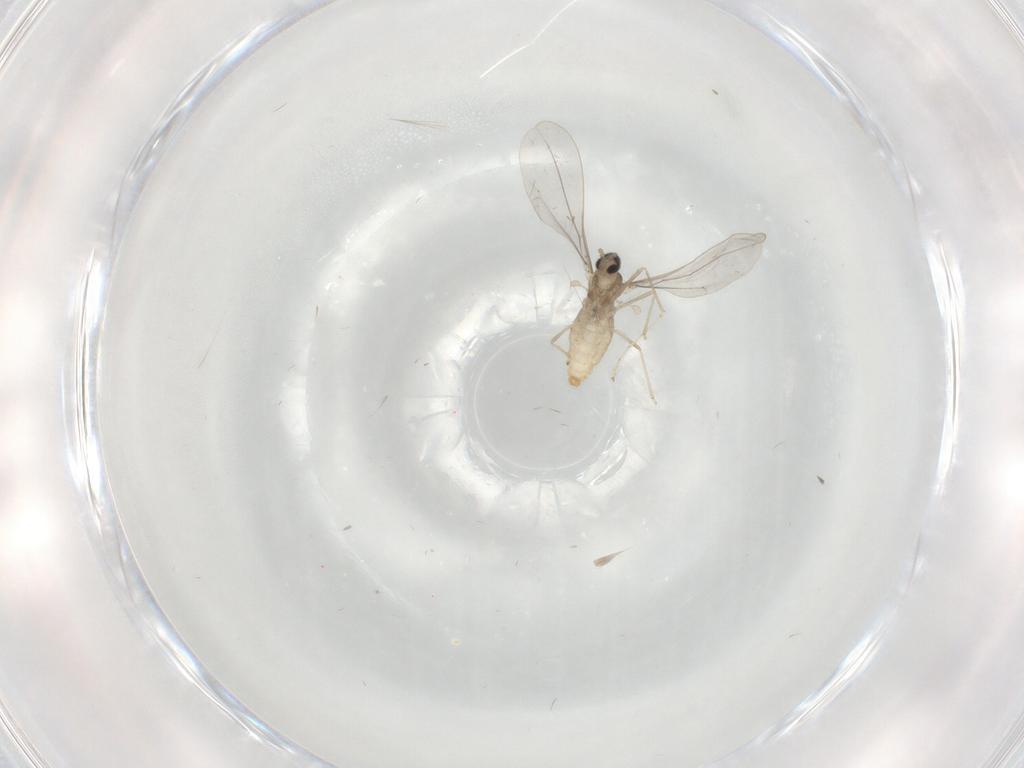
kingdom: Animalia
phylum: Arthropoda
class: Insecta
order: Diptera
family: Cecidomyiidae
